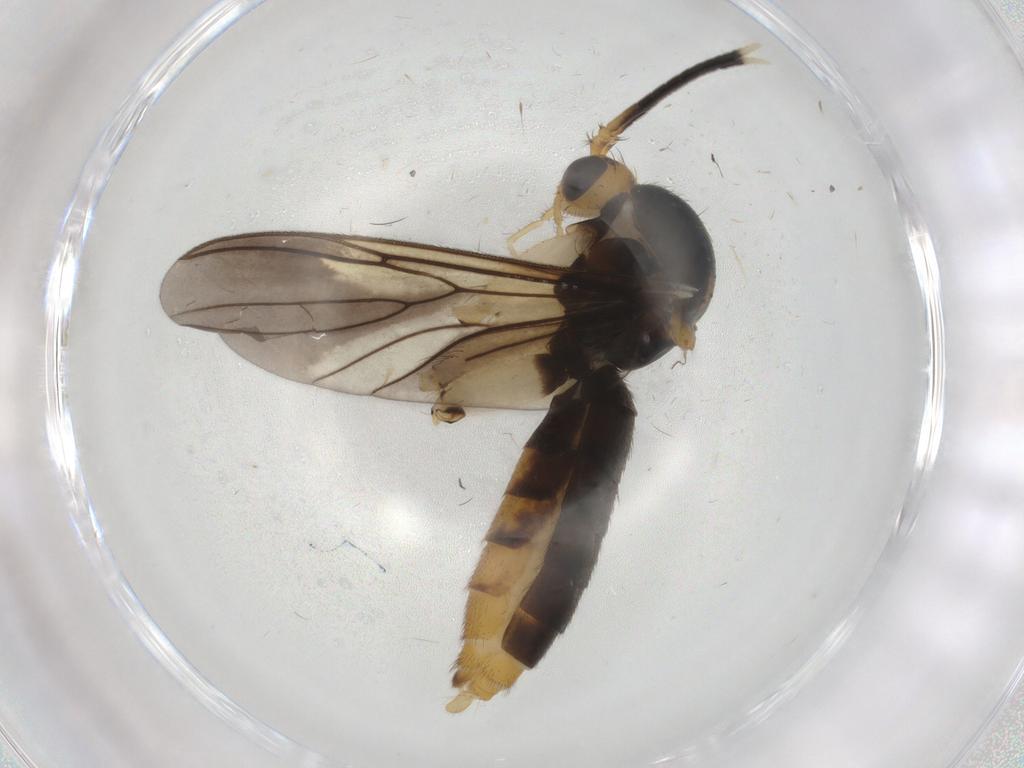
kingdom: Animalia
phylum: Arthropoda
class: Insecta
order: Diptera
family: Mycetophilidae
